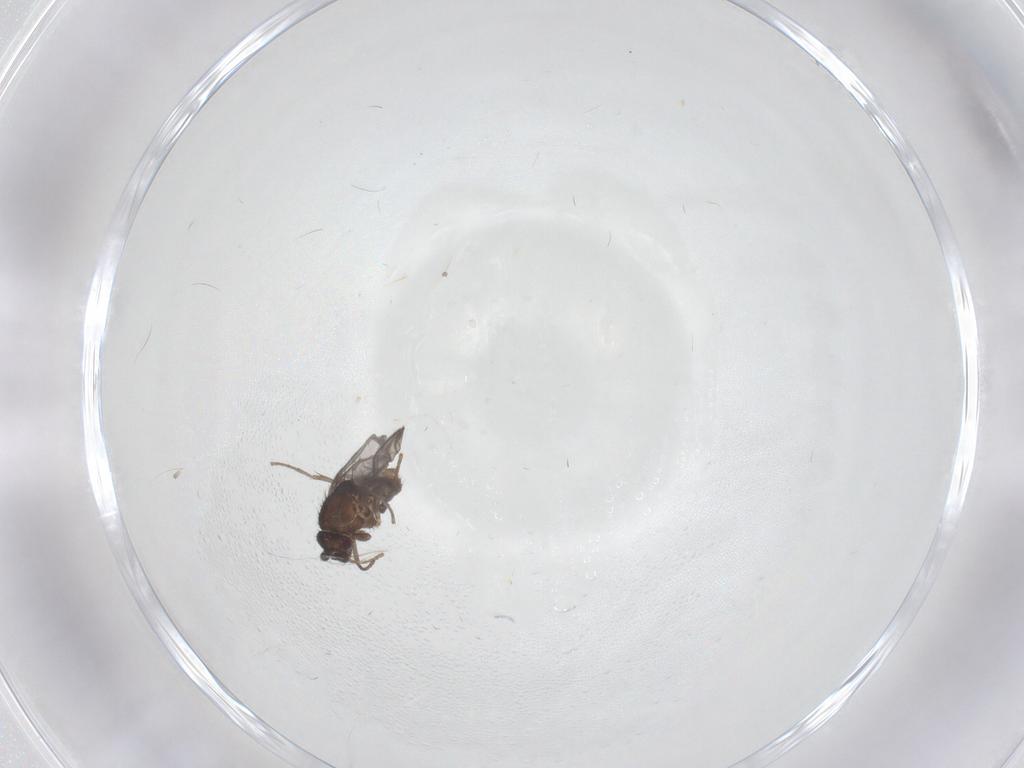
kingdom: Animalia
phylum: Arthropoda
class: Insecta
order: Diptera
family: Sphaeroceridae
